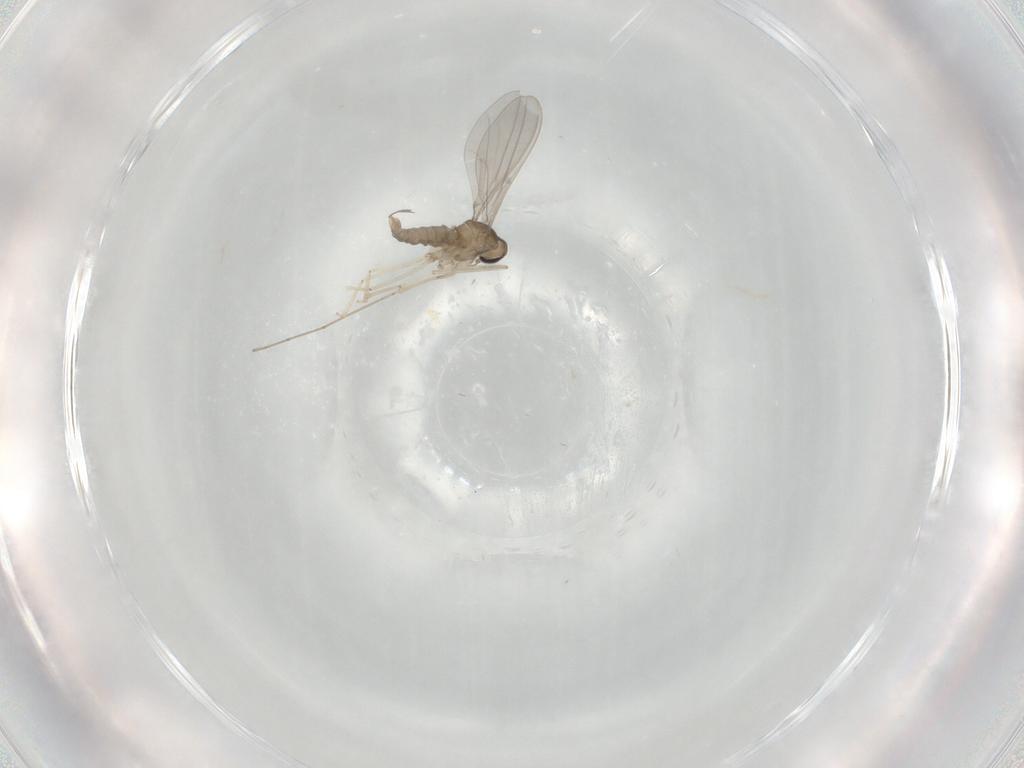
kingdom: Animalia
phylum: Arthropoda
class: Insecta
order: Diptera
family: Cecidomyiidae
